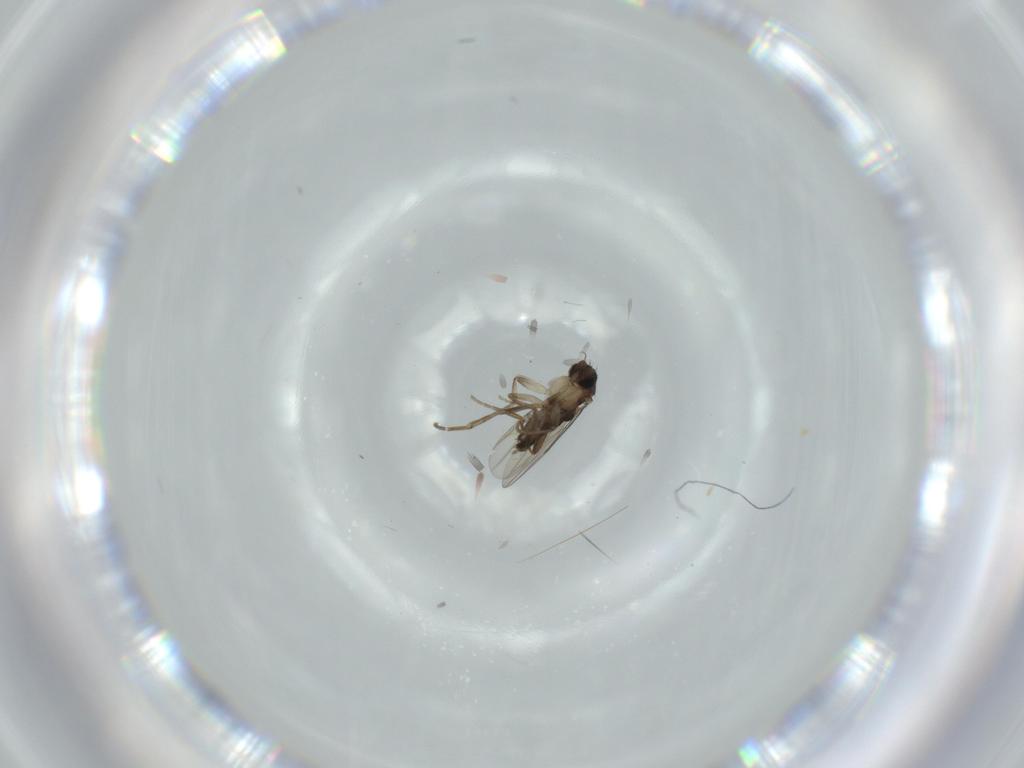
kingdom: Animalia
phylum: Arthropoda
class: Insecta
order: Diptera
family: Phoridae
